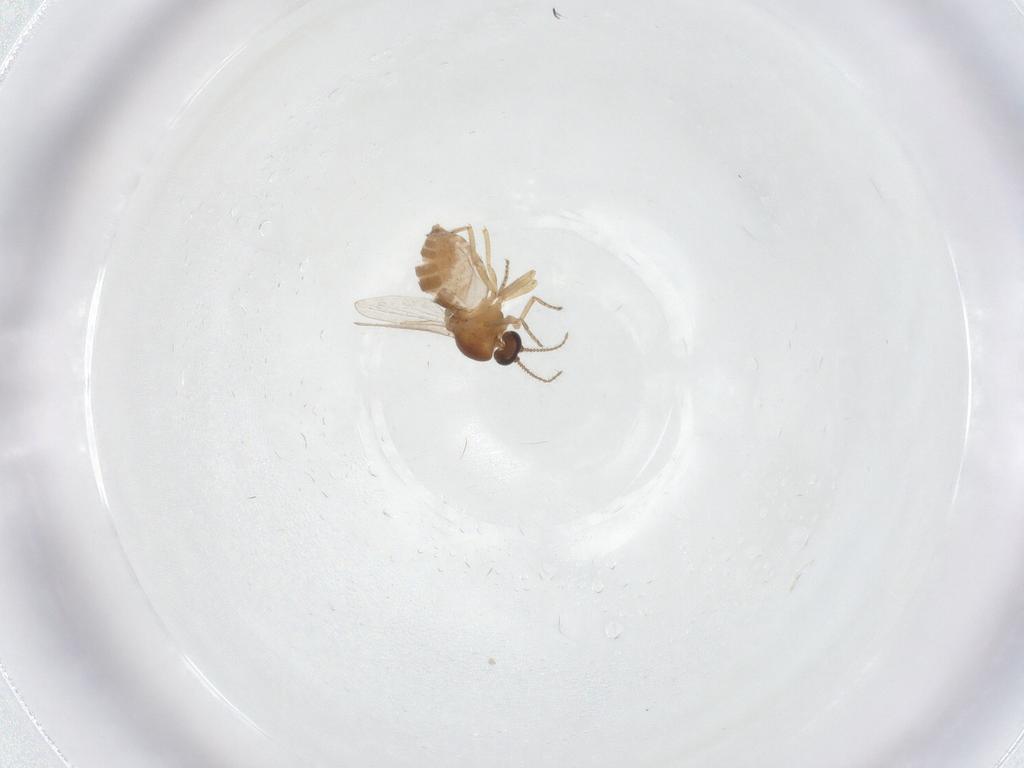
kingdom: Animalia
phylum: Arthropoda
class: Insecta
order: Diptera
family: Ceratopogonidae
